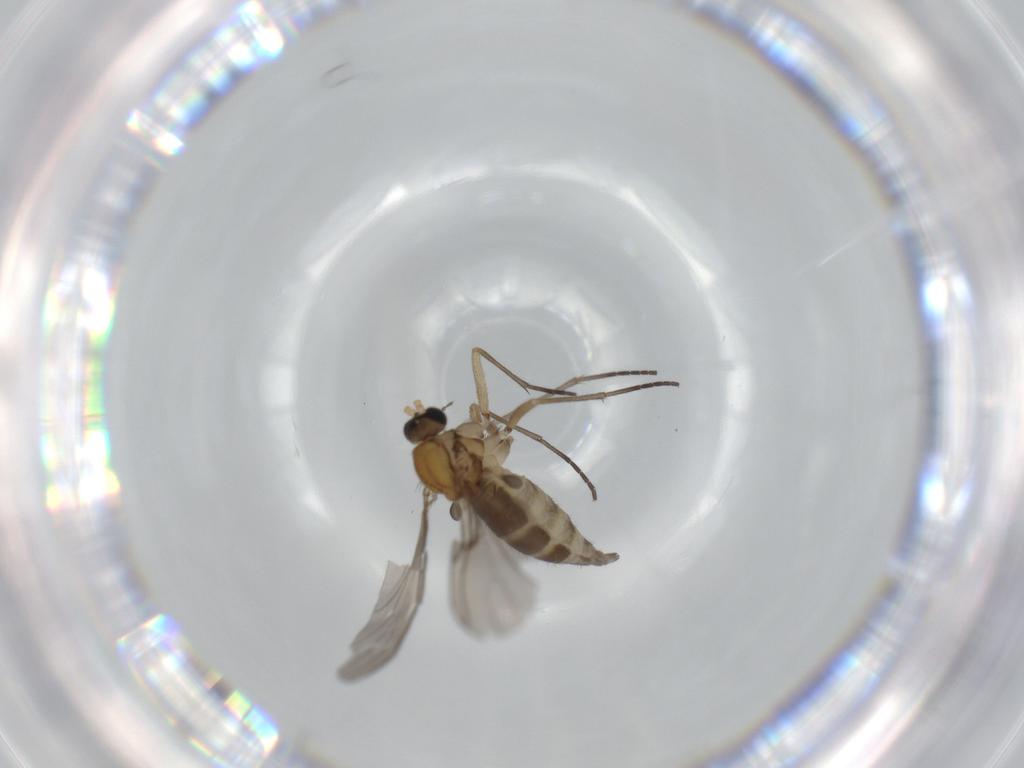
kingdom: Animalia
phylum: Arthropoda
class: Insecta
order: Diptera
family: Sciaridae
